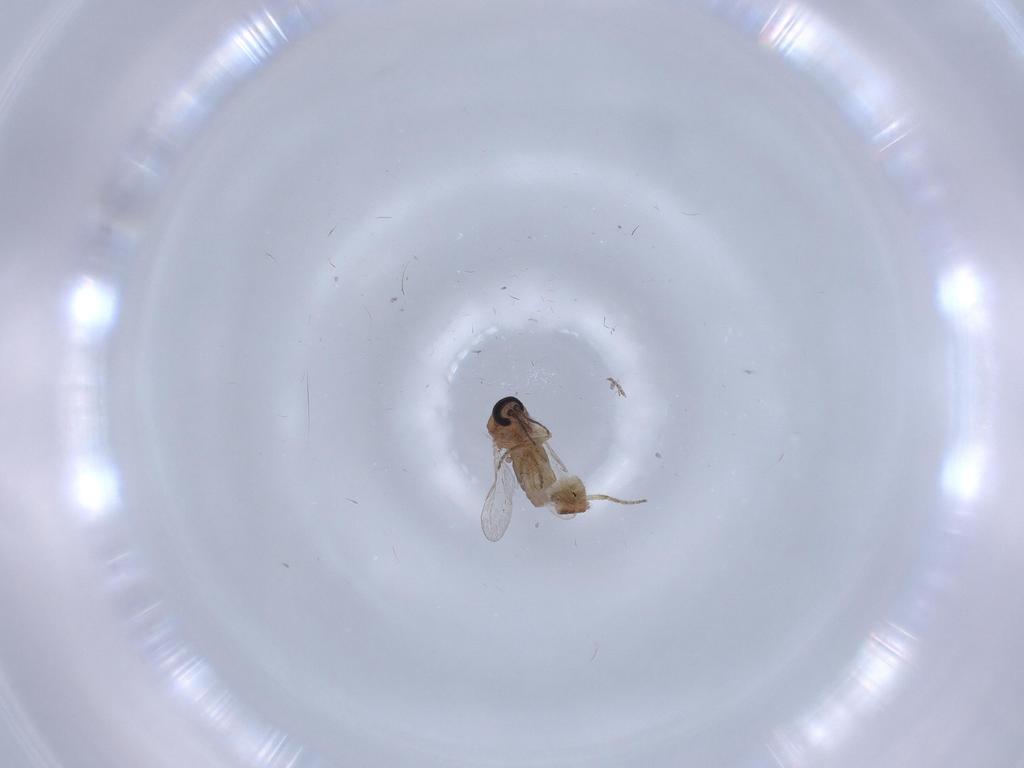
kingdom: Animalia
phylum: Arthropoda
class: Insecta
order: Diptera
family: Ceratopogonidae
